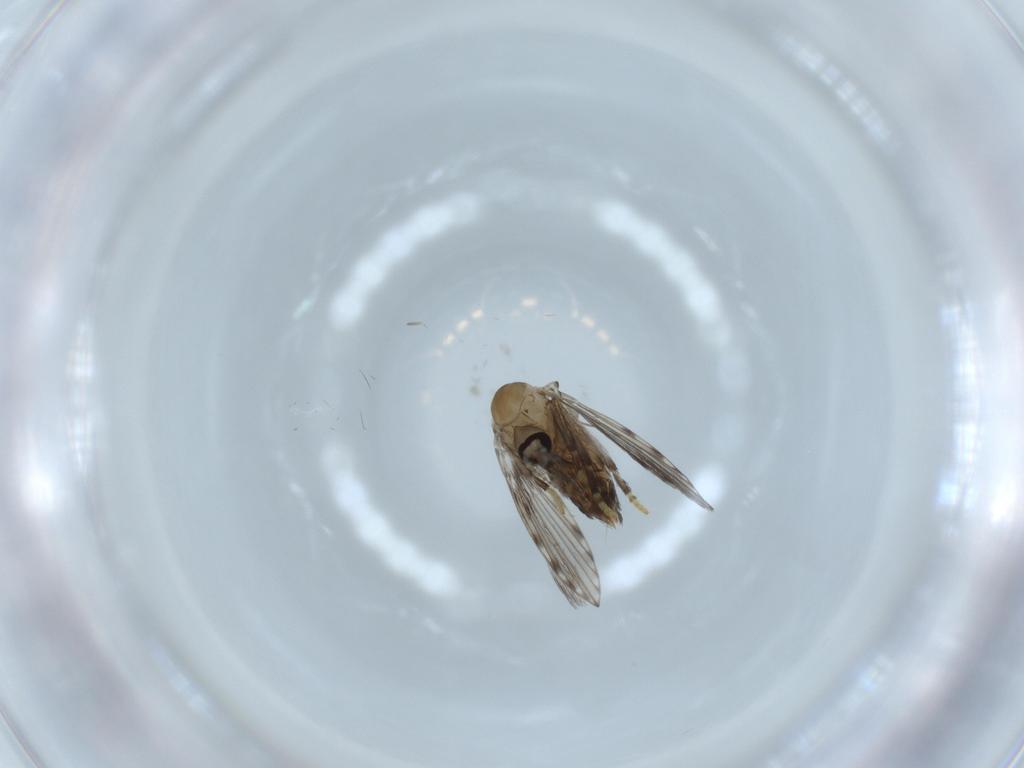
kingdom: Animalia
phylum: Arthropoda
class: Insecta
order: Diptera
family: Psychodidae
